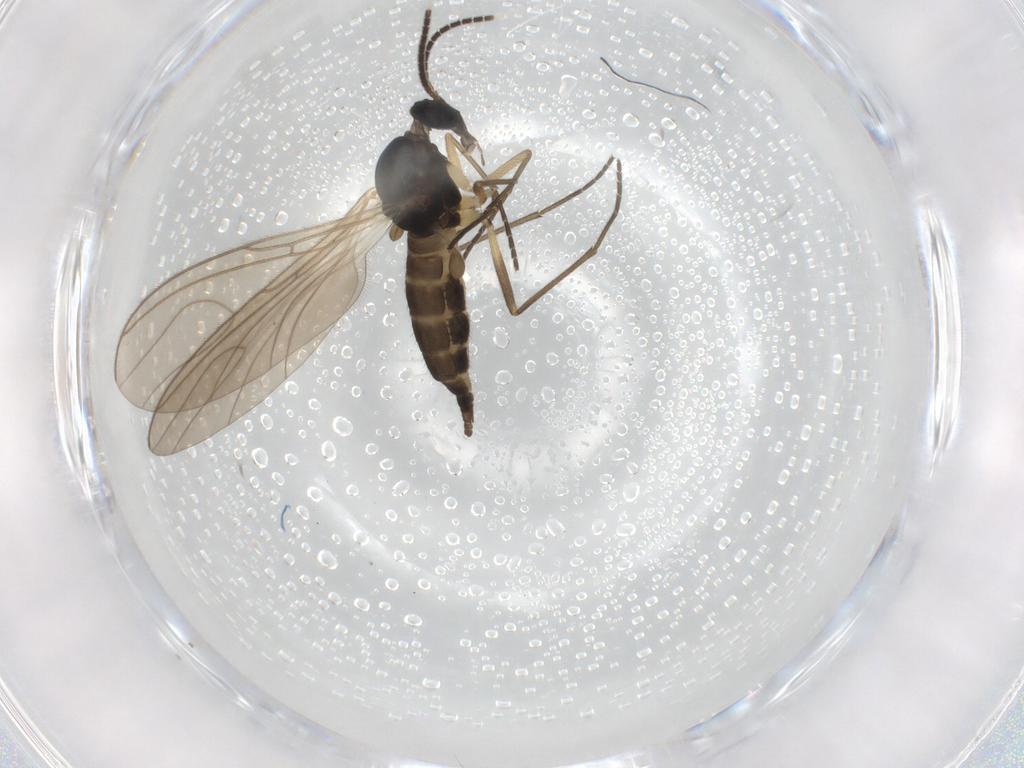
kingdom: Animalia
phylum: Arthropoda
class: Insecta
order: Diptera
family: Sciaridae
